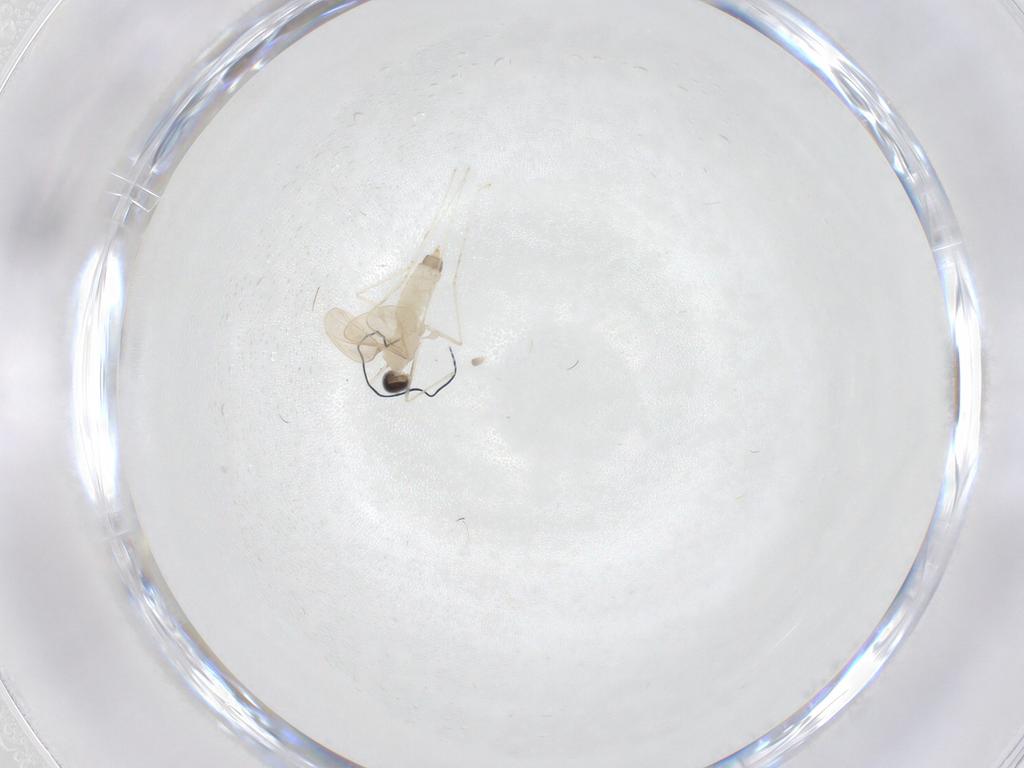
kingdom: Animalia
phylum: Arthropoda
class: Insecta
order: Diptera
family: Cecidomyiidae
